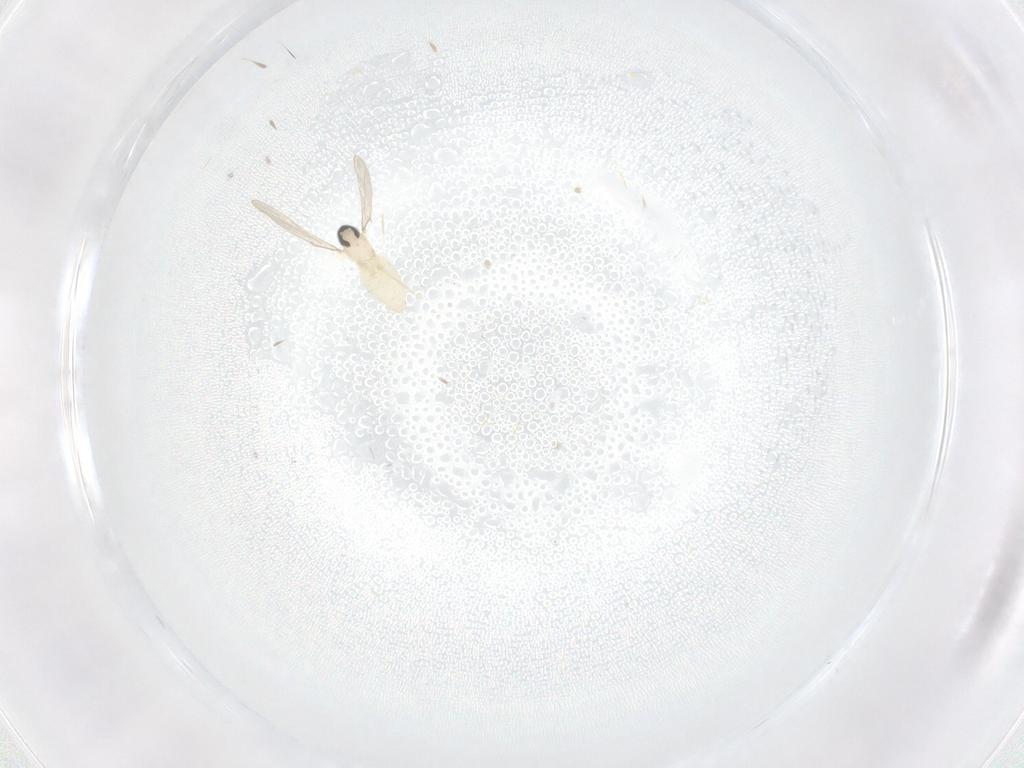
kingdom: Animalia
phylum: Arthropoda
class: Insecta
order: Diptera
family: Cecidomyiidae
